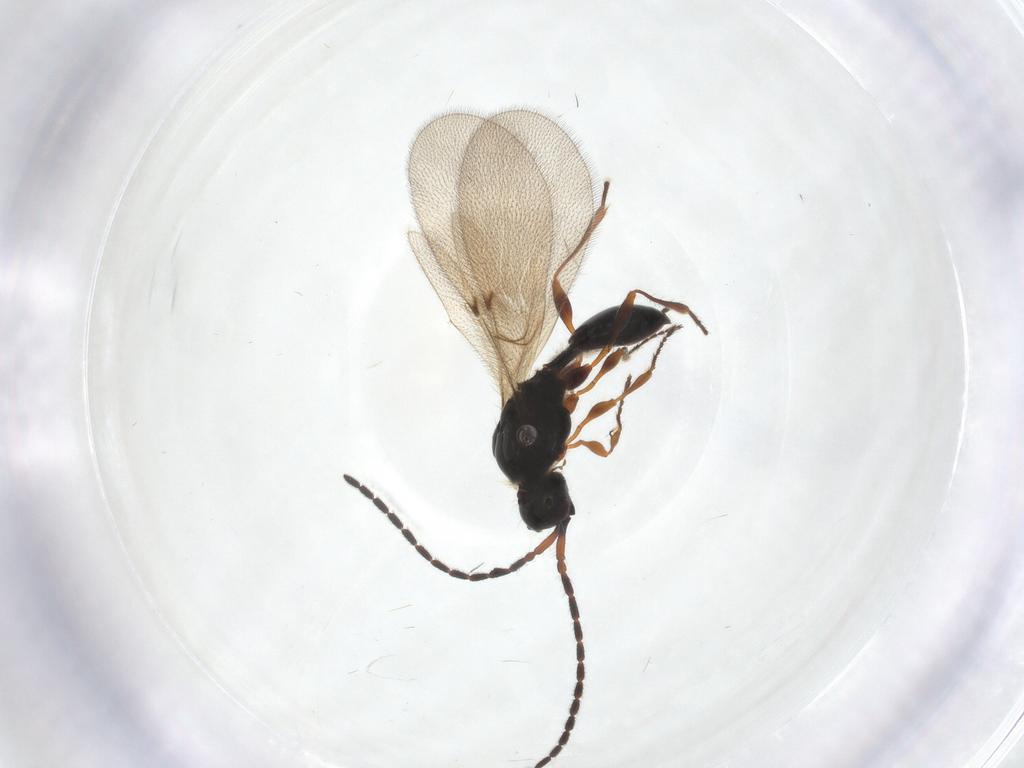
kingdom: Animalia
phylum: Arthropoda
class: Insecta
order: Hymenoptera
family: Diapriidae
